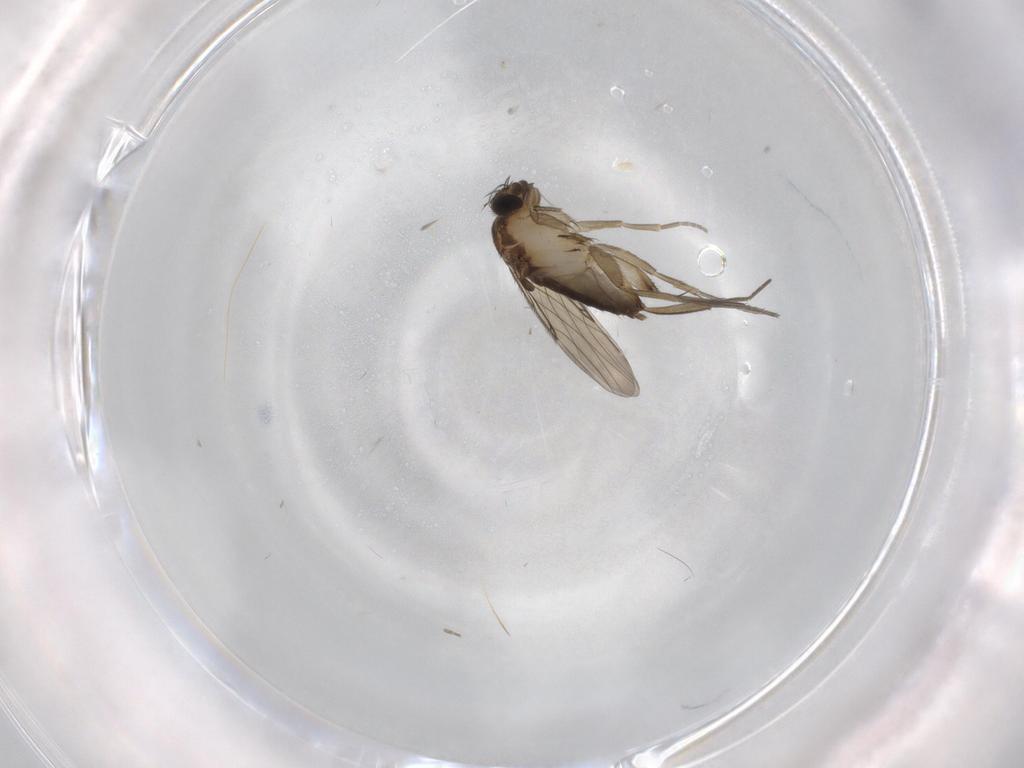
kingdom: Animalia
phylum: Arthropoda
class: Insecta
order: Diptera
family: Phoridae
